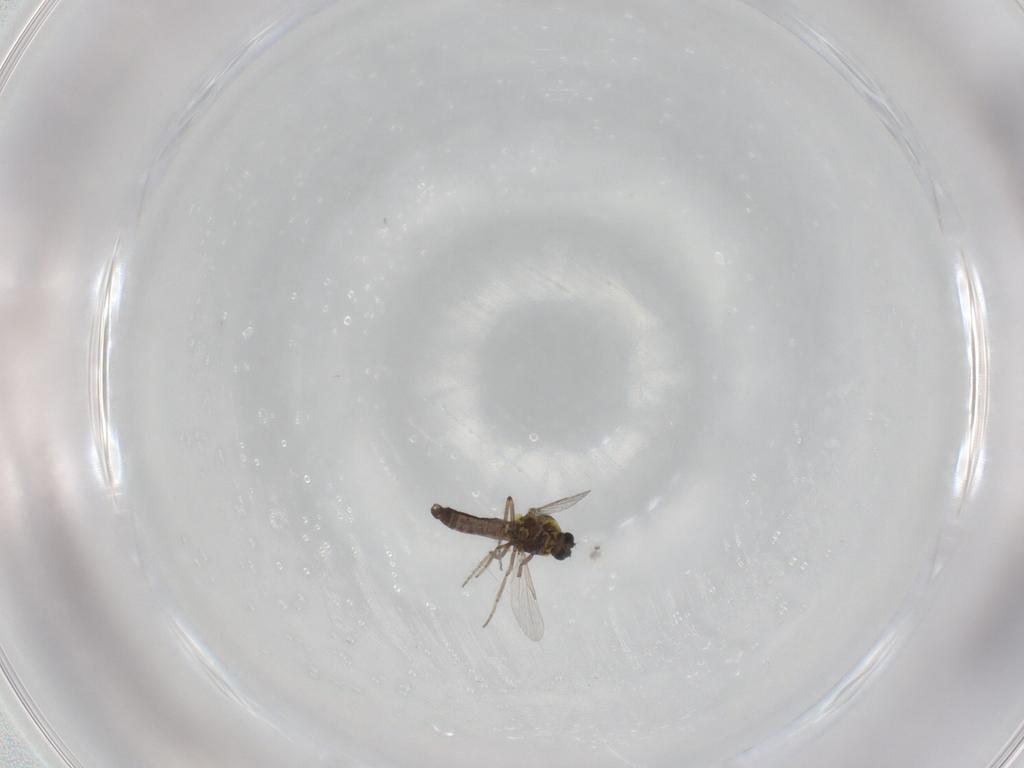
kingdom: Animalia
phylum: Arthropoda
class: Insecta
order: Diptera
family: Ceratopogonidae
